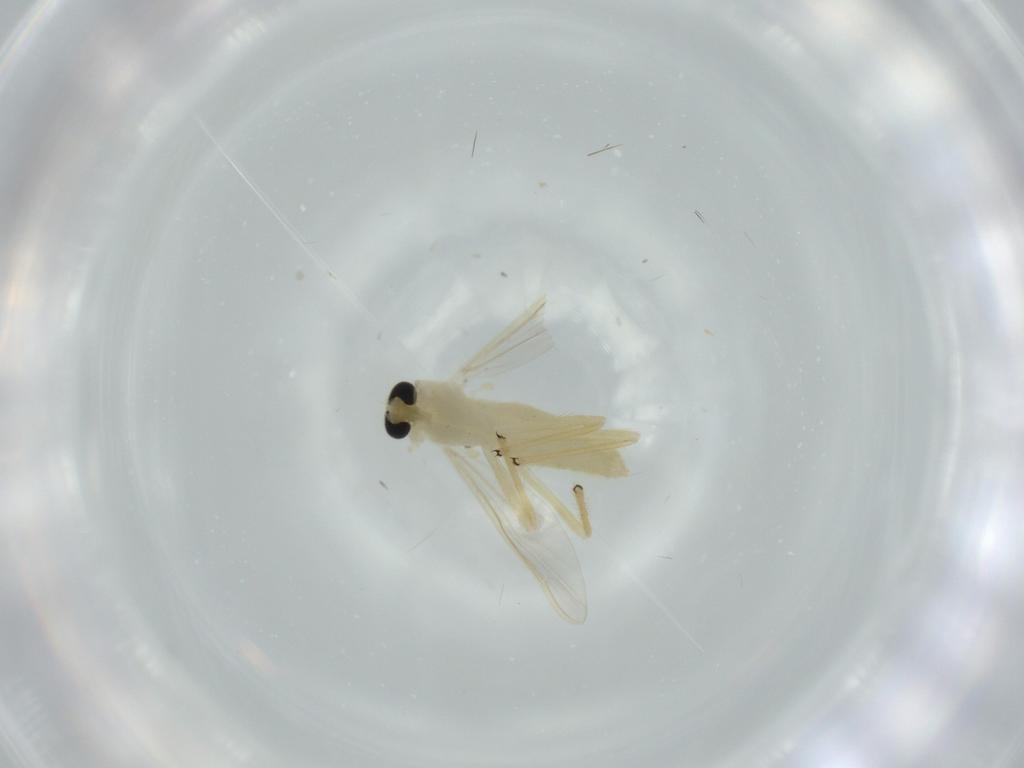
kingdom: Animalia
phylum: Arthropoda
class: Insecta
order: Diptera
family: Chironomidae
